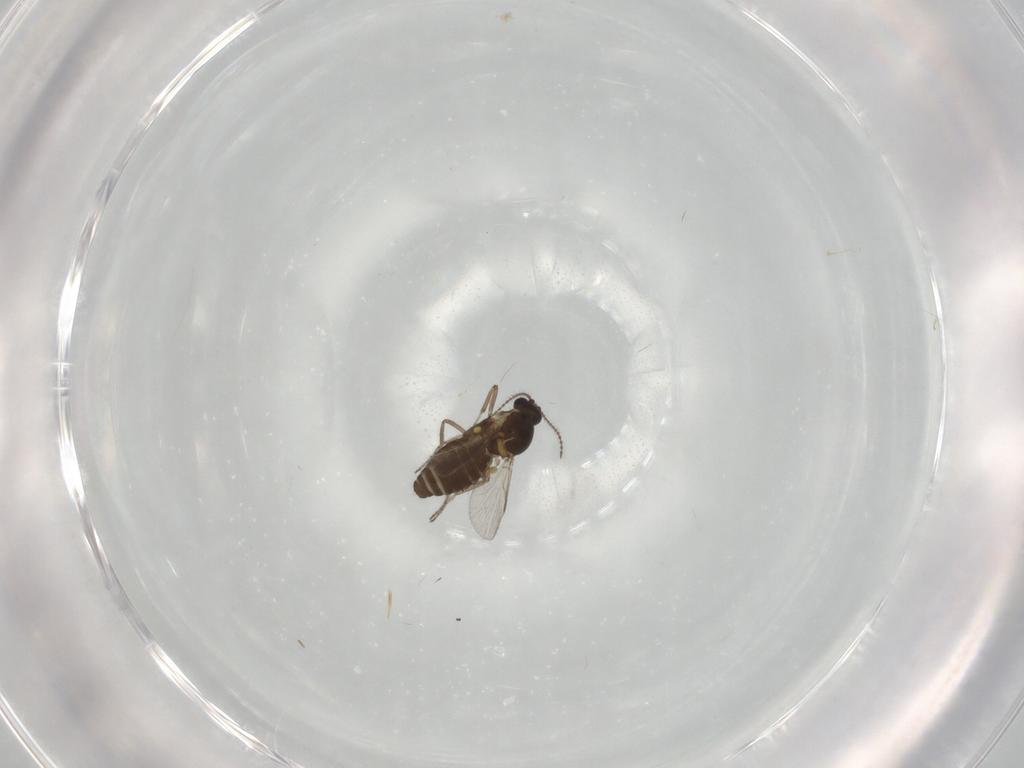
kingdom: Animalia
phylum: Arthropoda
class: Insecta
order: Diptera
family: Ceratopogonidae
